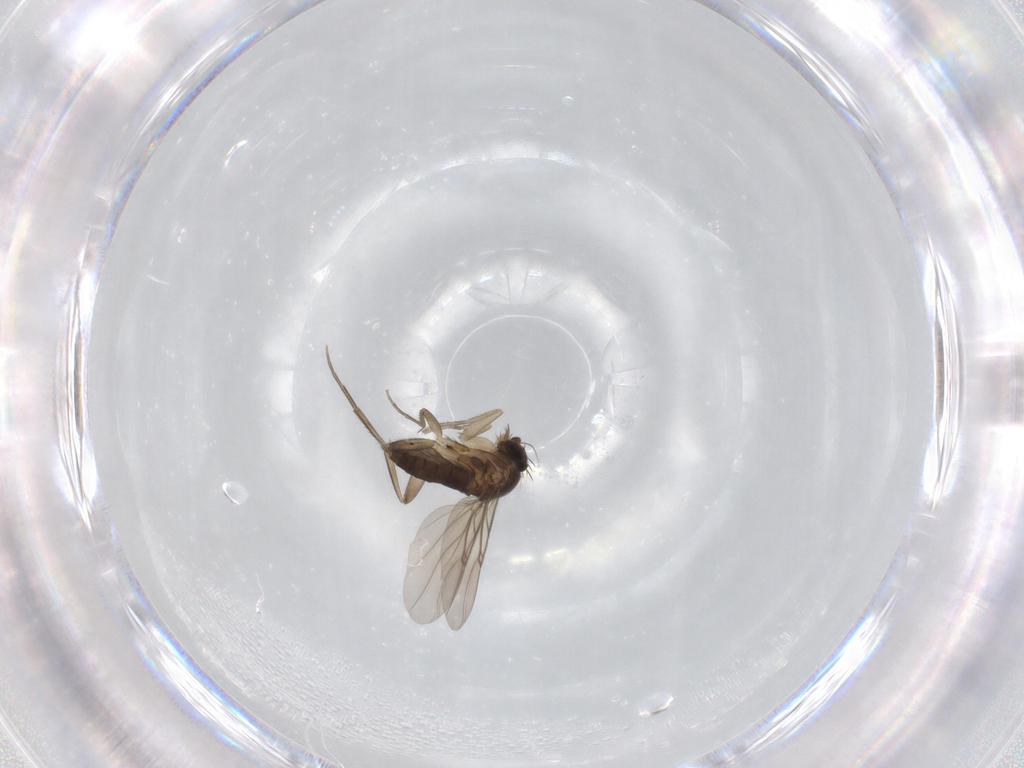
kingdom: Animalia
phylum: Arthropoda
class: Insecta
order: Diptera
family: Phoridae
